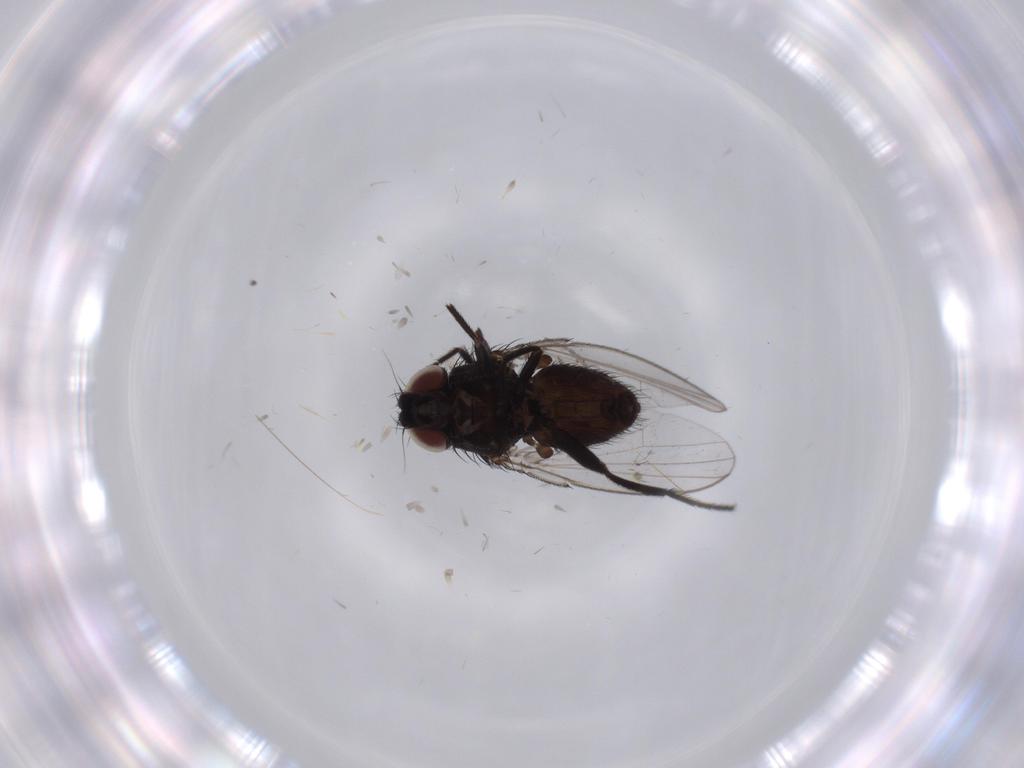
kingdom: Animalia
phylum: Arthropoda
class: Insecta
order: Diptera
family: Sciaridae
